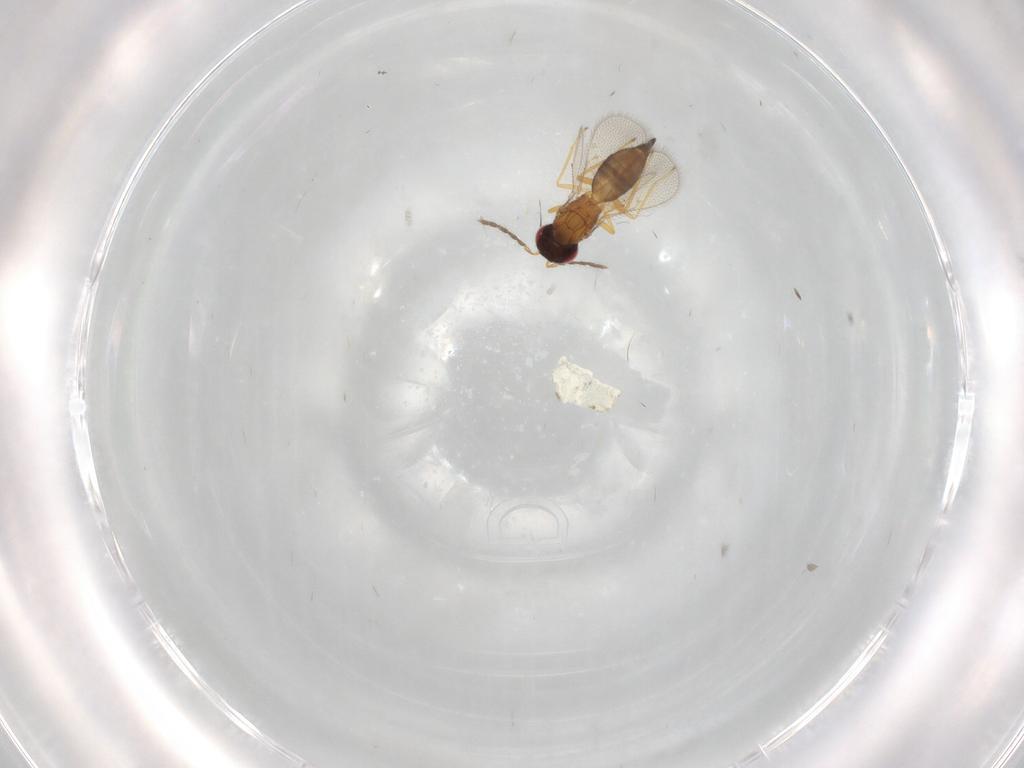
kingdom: Animalia
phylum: Arthropoda
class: Insecta
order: Hymenoptera
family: Eulophidae
